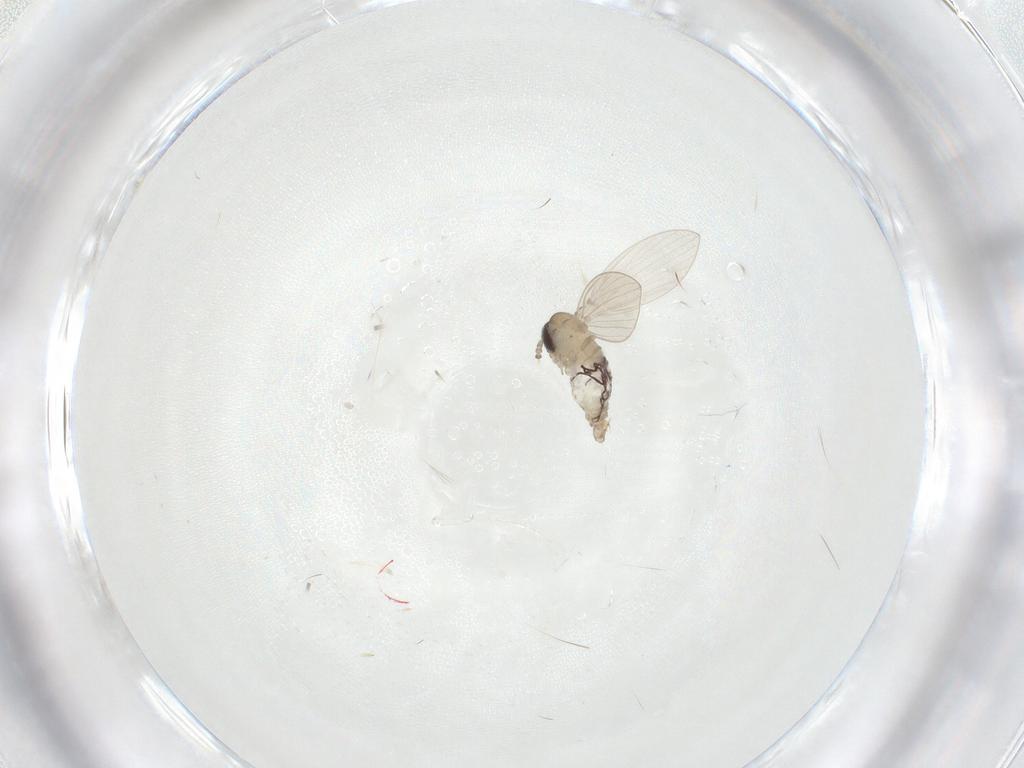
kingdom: Animalia
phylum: Arthropoda
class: Insecta
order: Diptera
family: Psychodidae
